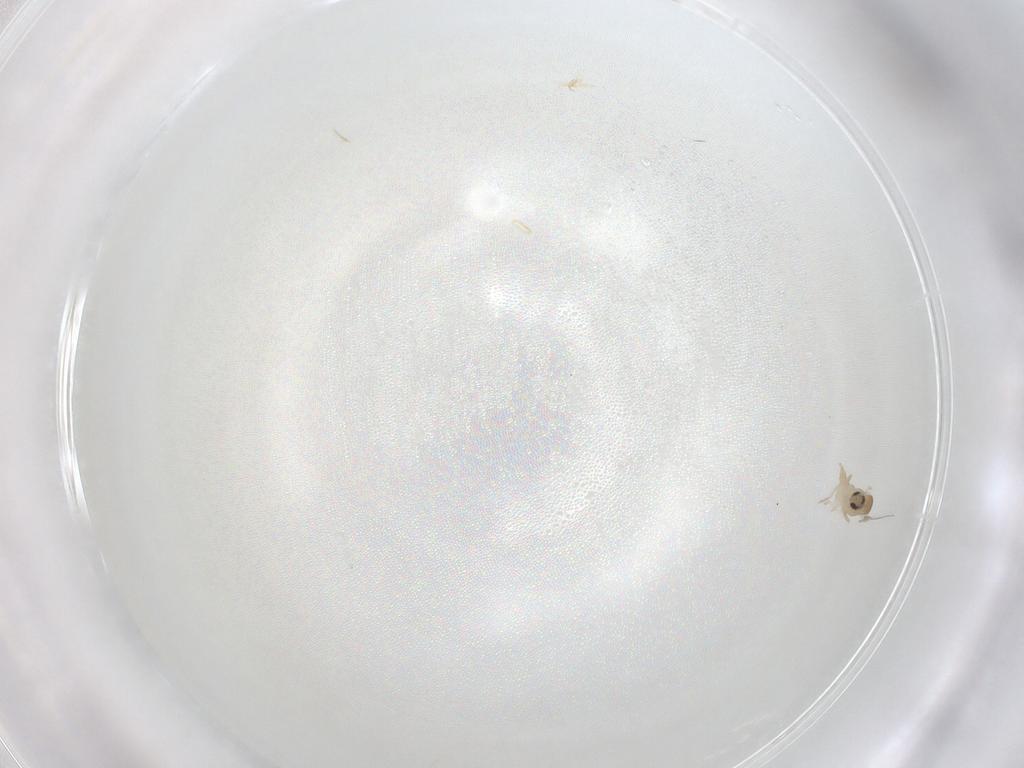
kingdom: Animalia
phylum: Arthropoda
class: Insecta
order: Diptera
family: Cecidomyiidae
